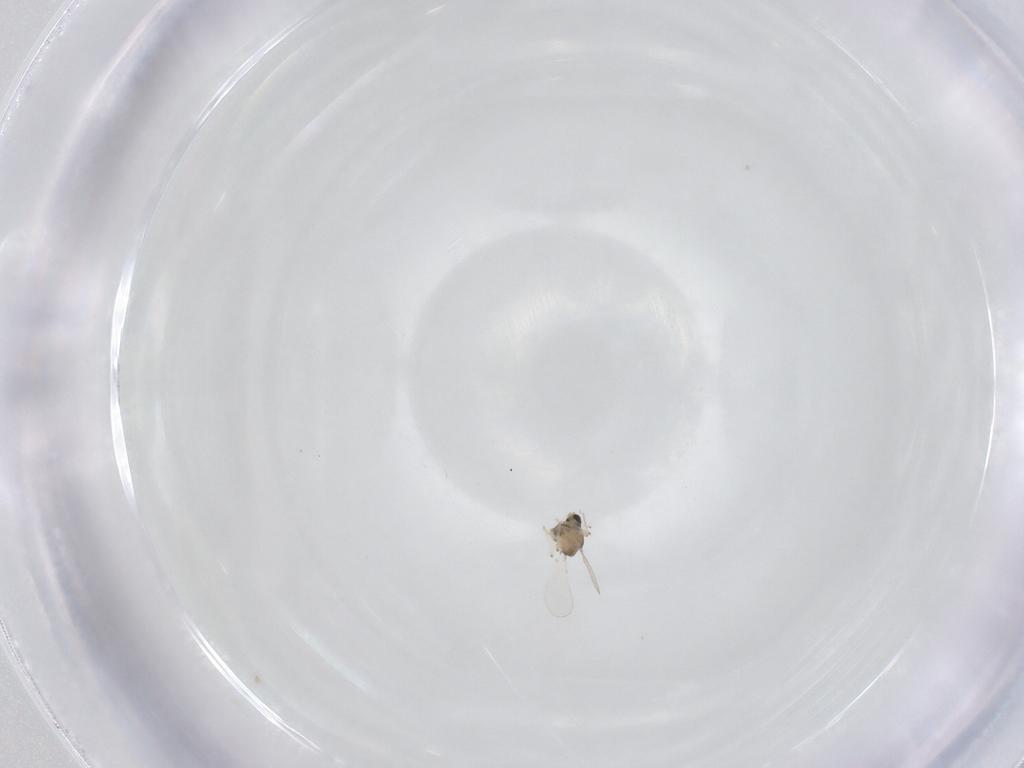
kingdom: Animalia
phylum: Arthropoda
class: Insecta
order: Diptera
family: Chironomidae
